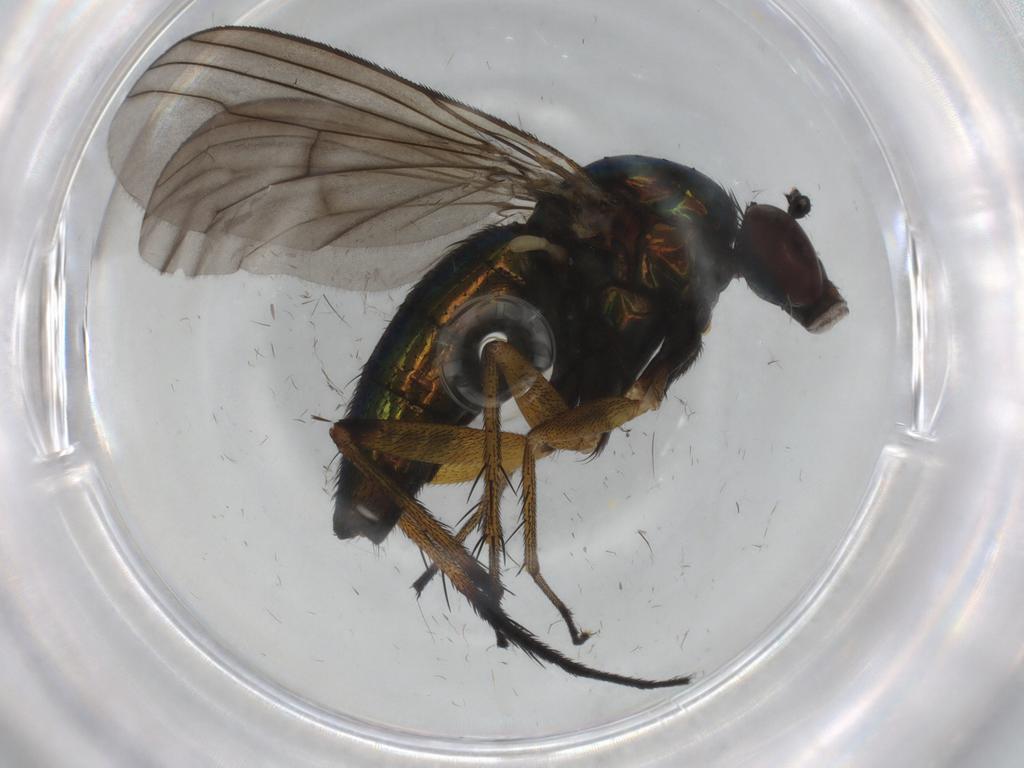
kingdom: Animalia
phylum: Arthropoda
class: Insecta
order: Diptera
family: Dolichopodidae
